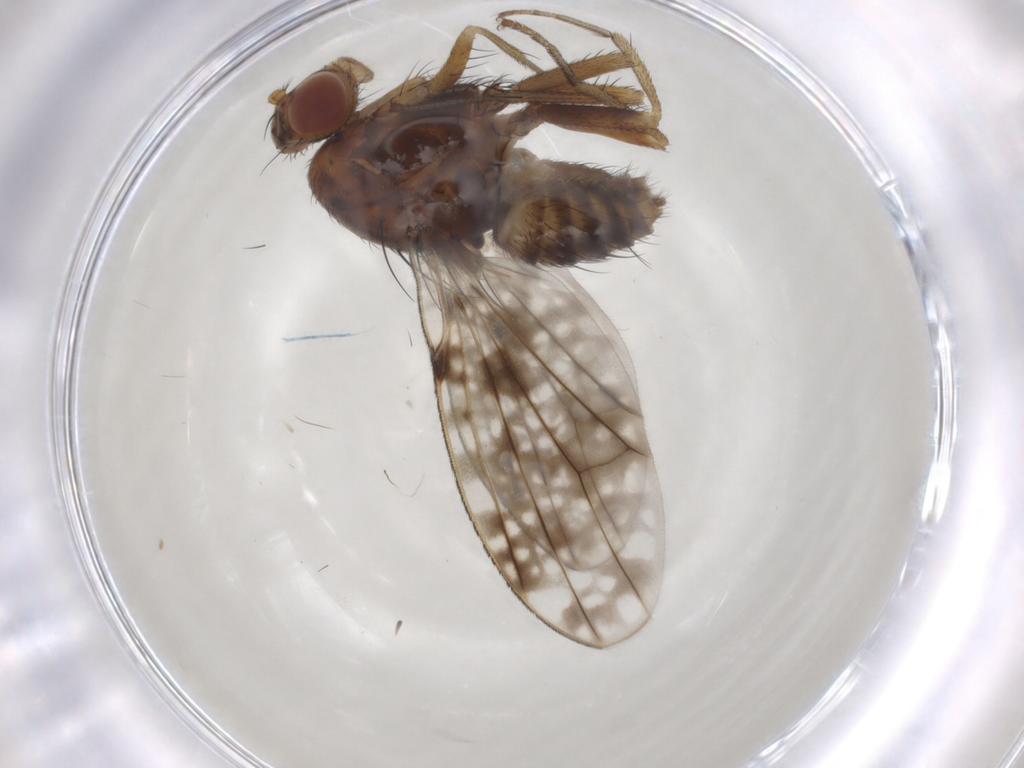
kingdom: Animalia
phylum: Arthropoda
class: Insecta
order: Diptera
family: Lauxaniidae
